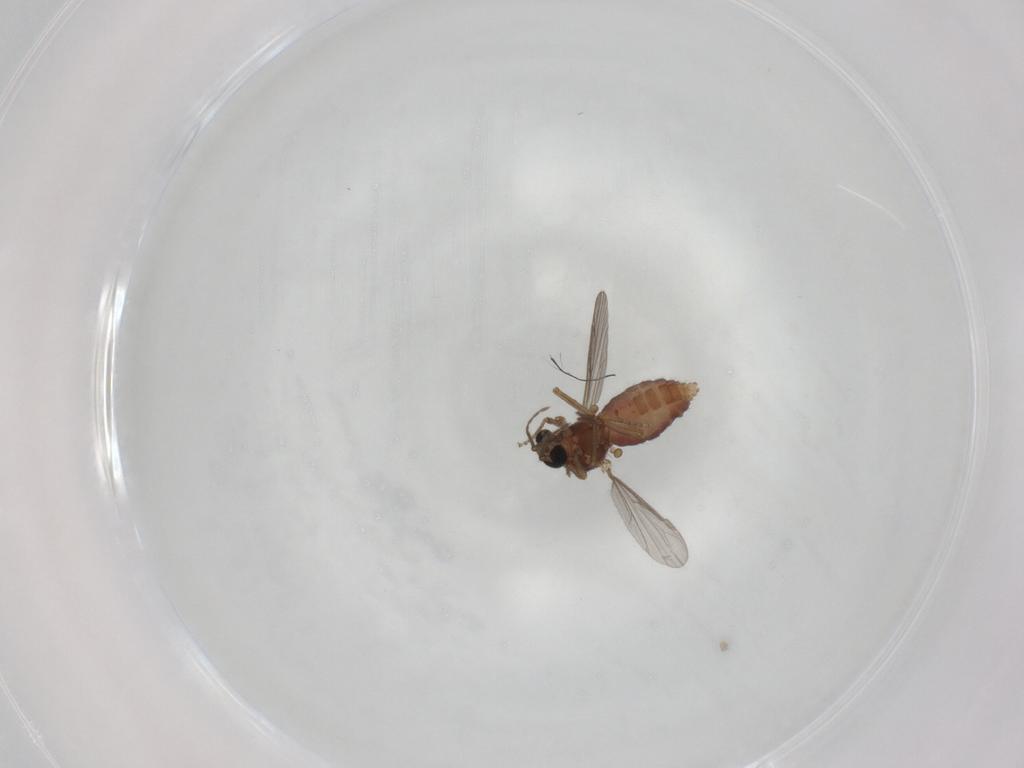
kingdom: Animalia
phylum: Arthropoda
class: Insecta
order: Diptera
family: Ceratopogonidae
